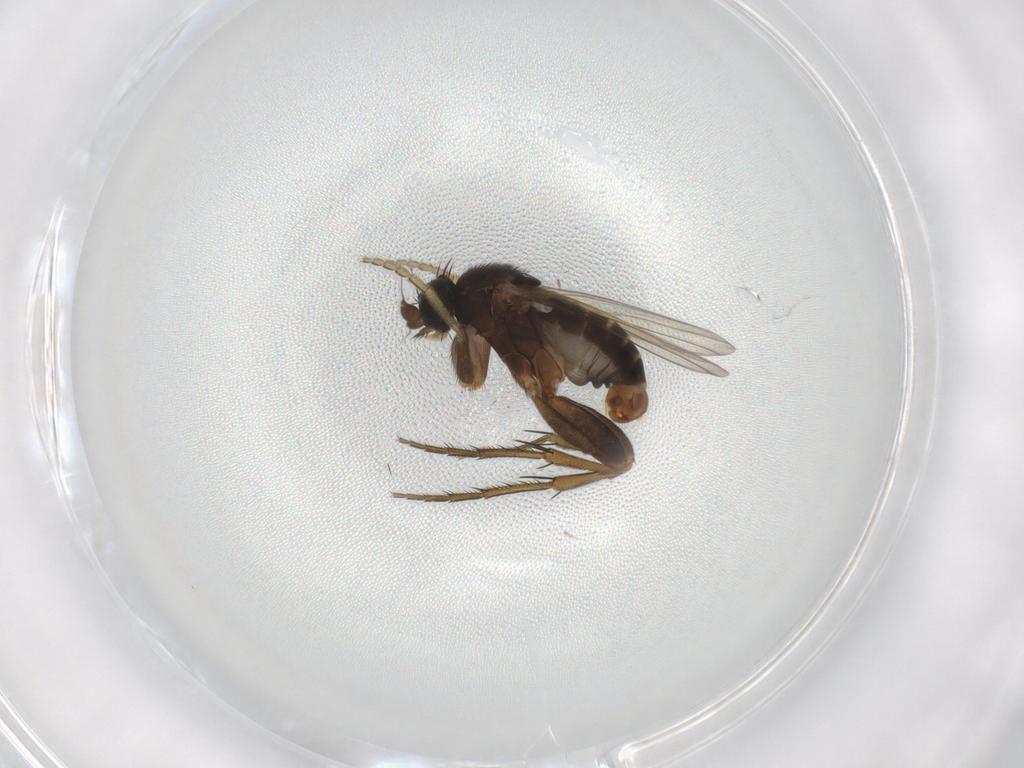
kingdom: Animalia
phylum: Arthropoda
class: Insecta
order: Diptera
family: Phoridae
